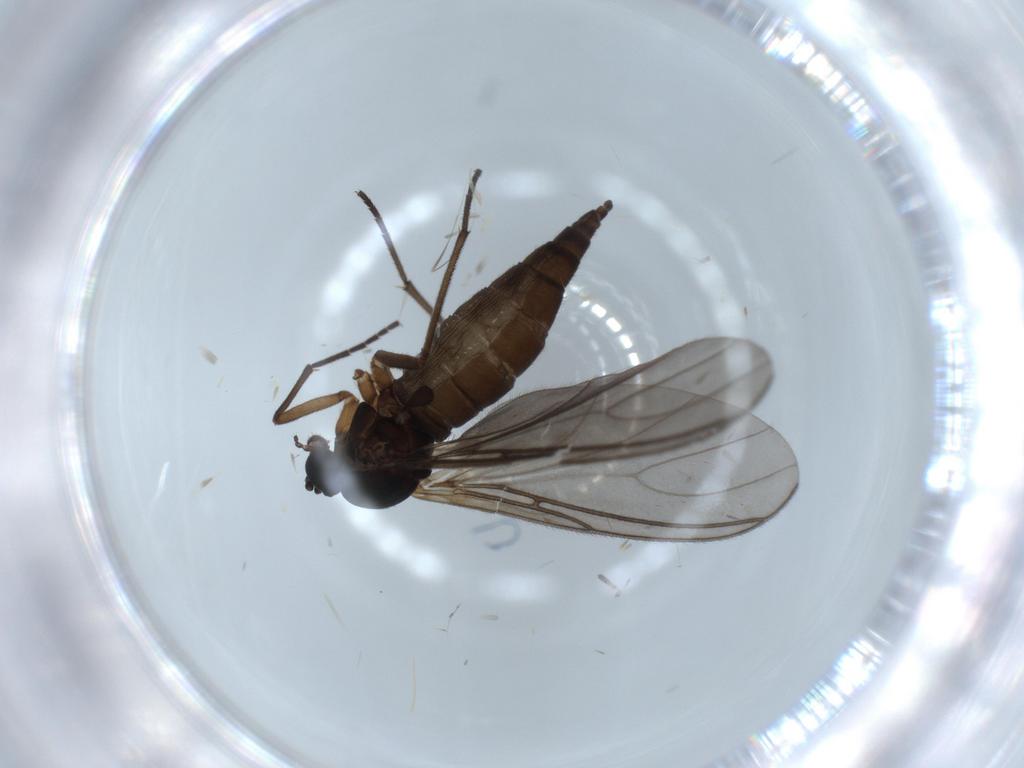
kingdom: Animalia
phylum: Arthropoda
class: Insecta
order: Diptera
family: Sciaridae
